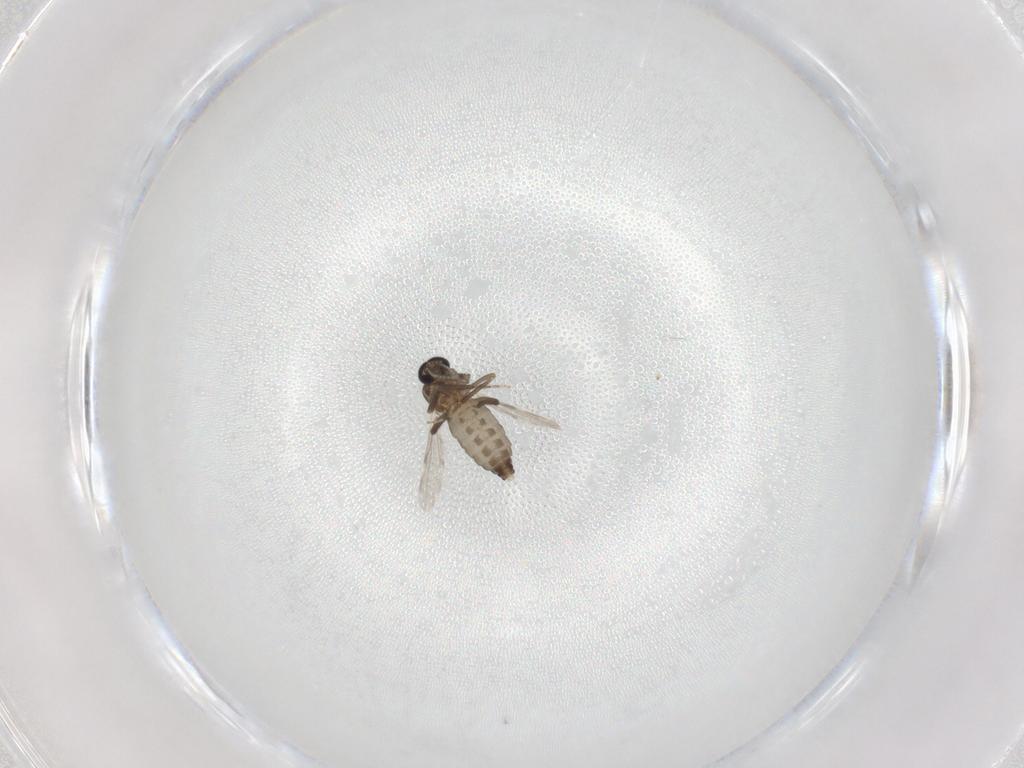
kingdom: Animalia
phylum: Arthropoda
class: Insecta
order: Diptera
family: Ceratopogonidae
